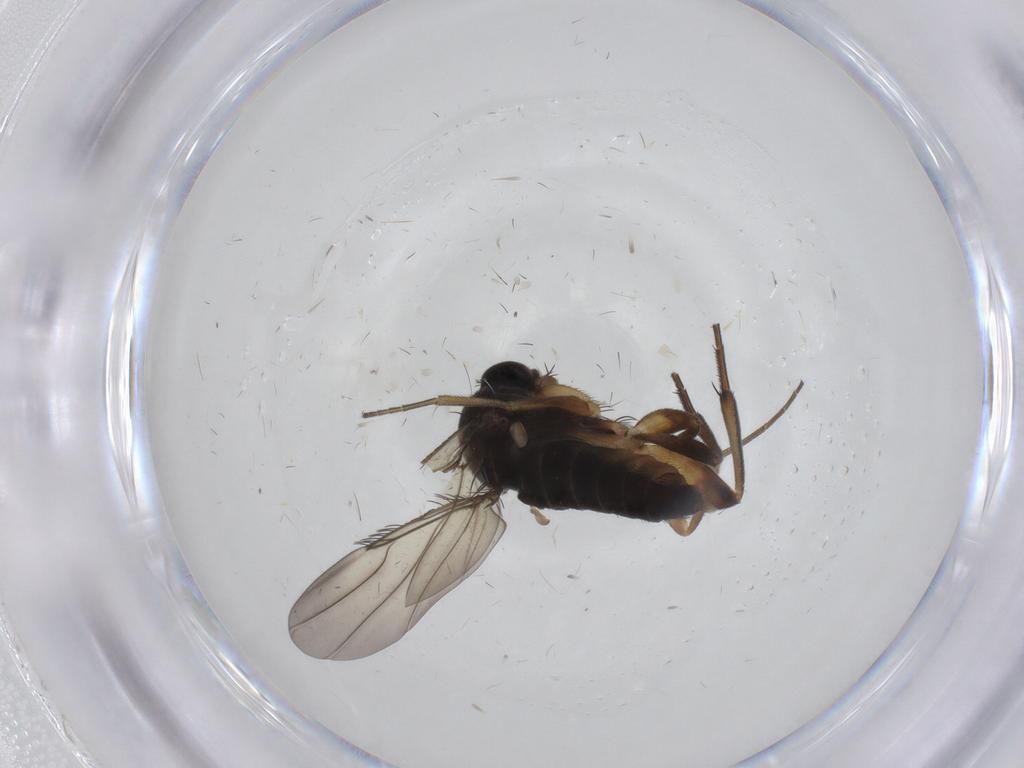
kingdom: Animalia
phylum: Arthropoda
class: Insecta
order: Diptera
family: Phoridae
